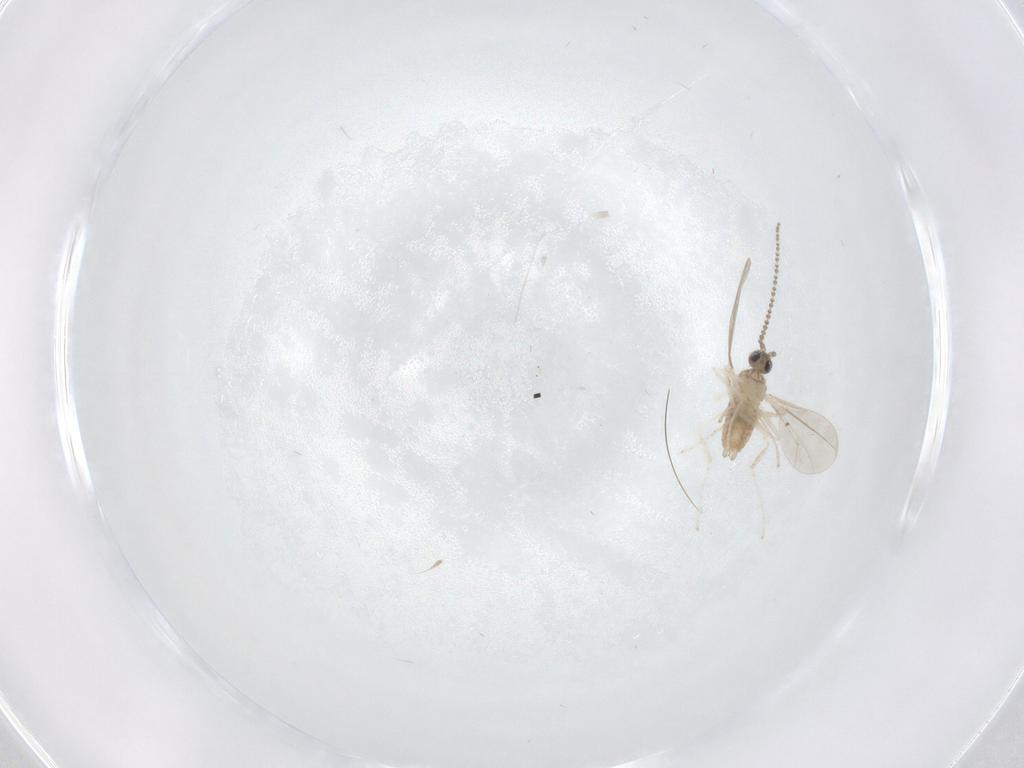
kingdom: Animalia
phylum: Arthropoda
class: Insecta
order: Diptera
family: Cecidomyiidae
